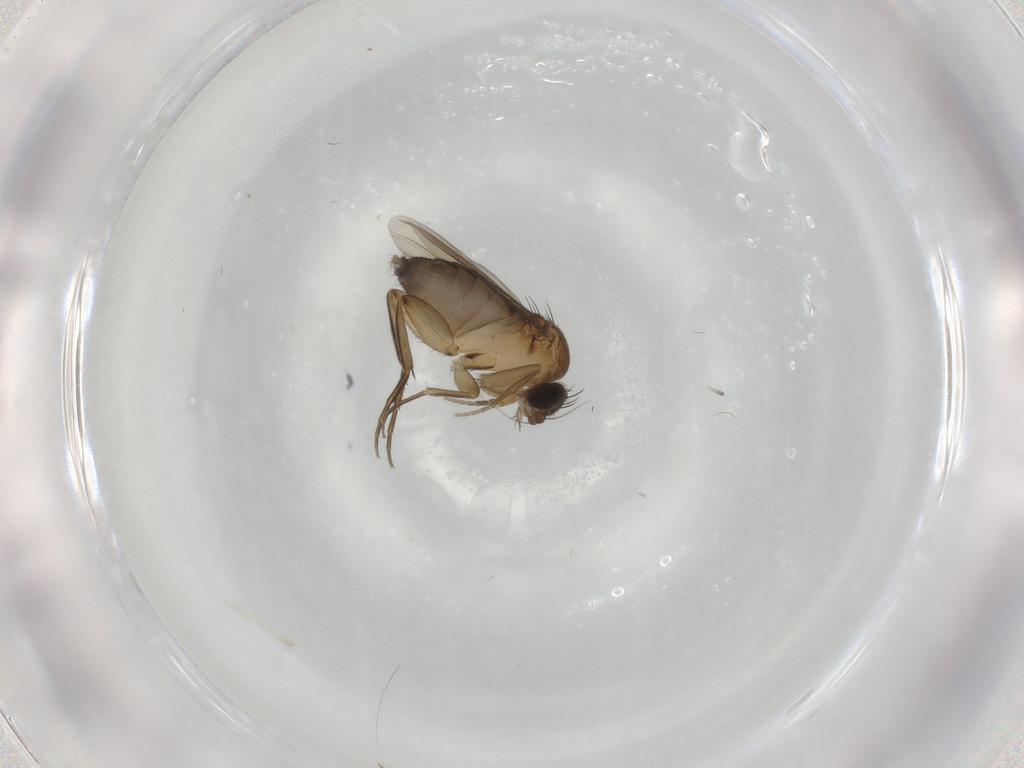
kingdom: Animalia
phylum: Arthropoda
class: Insecta
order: Diptera
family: Phoridae
